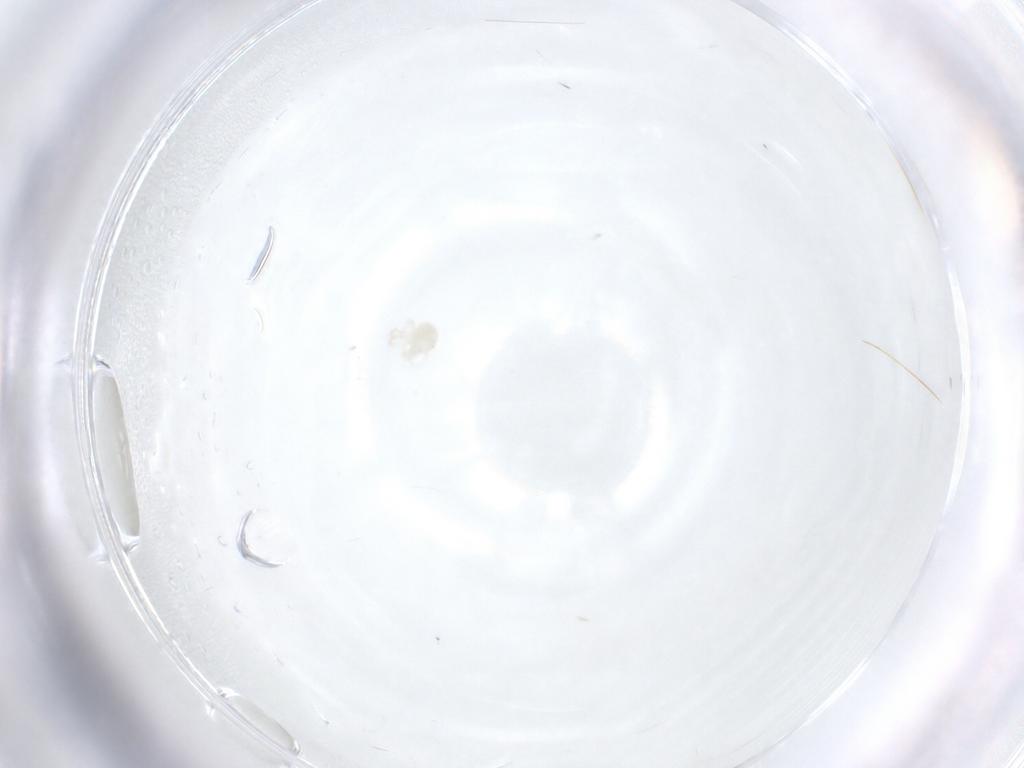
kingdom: Animalia
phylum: Arthropoda
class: Arachnida
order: Trombidiformes
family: Anystidae
